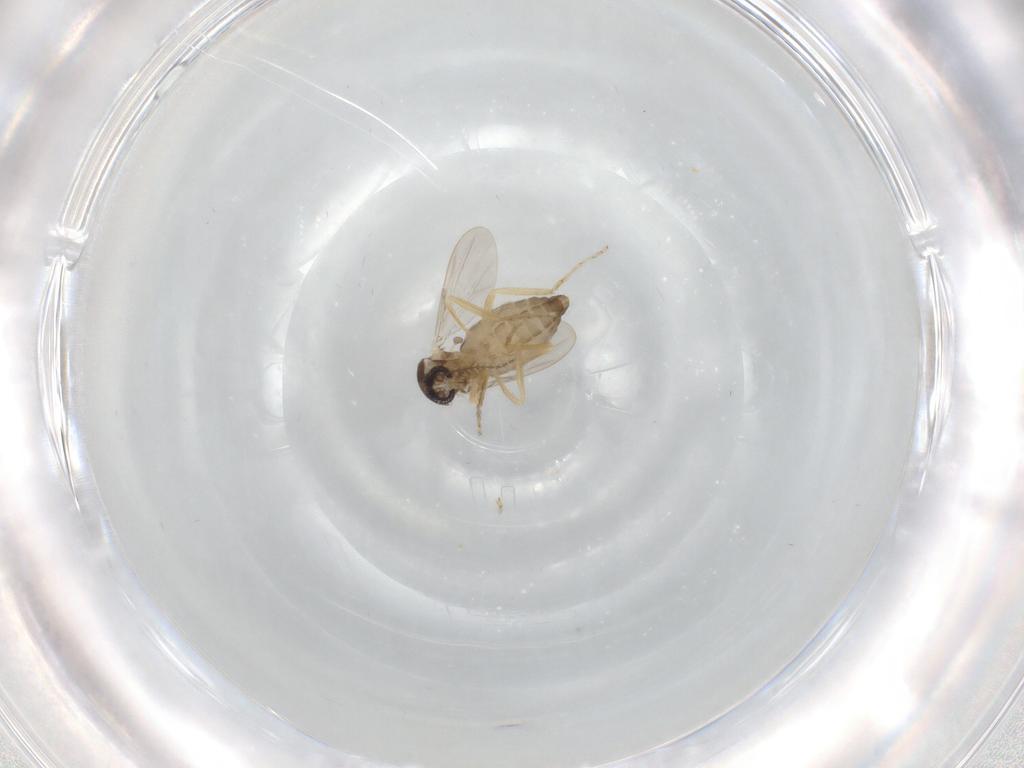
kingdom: Animalia
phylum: Arthropoda
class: Insecta
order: Diptera
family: Ceratopogonidae
